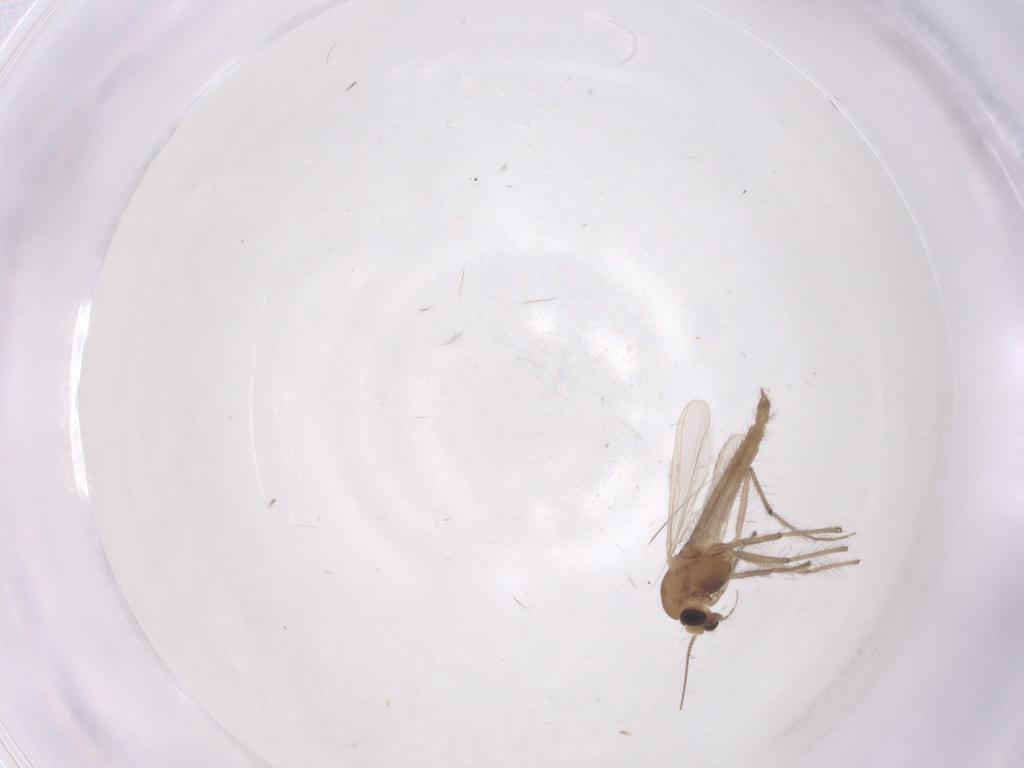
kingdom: Animalia
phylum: Arthropoda
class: Insecta
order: Diptera
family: Chironomidae
